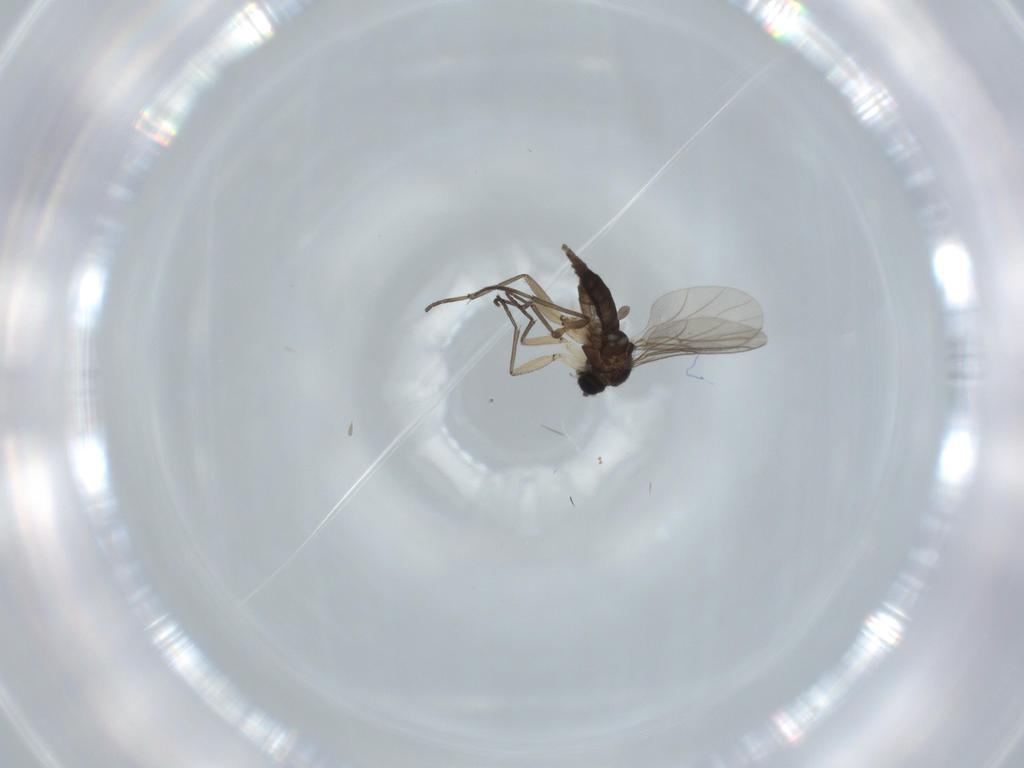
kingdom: Animalia
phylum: Arthropoda
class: Insecta
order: Diptera
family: Sciaridae
